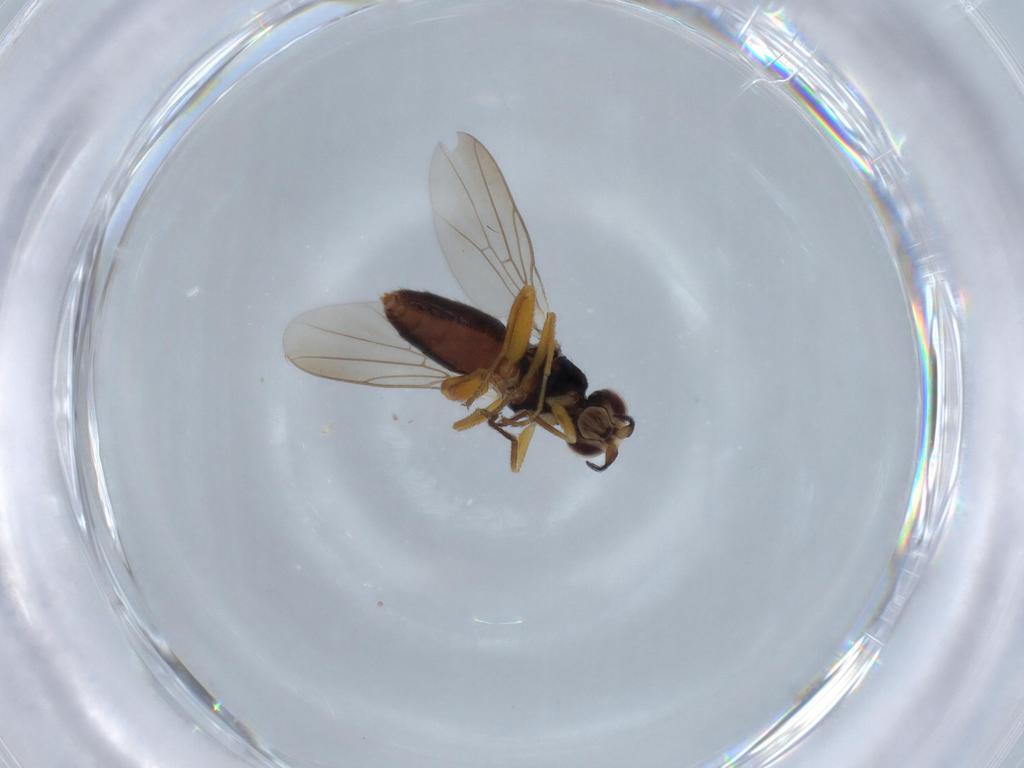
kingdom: Animalia
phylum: Arthropoda
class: Insecta
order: Diptera
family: Chloropidae
